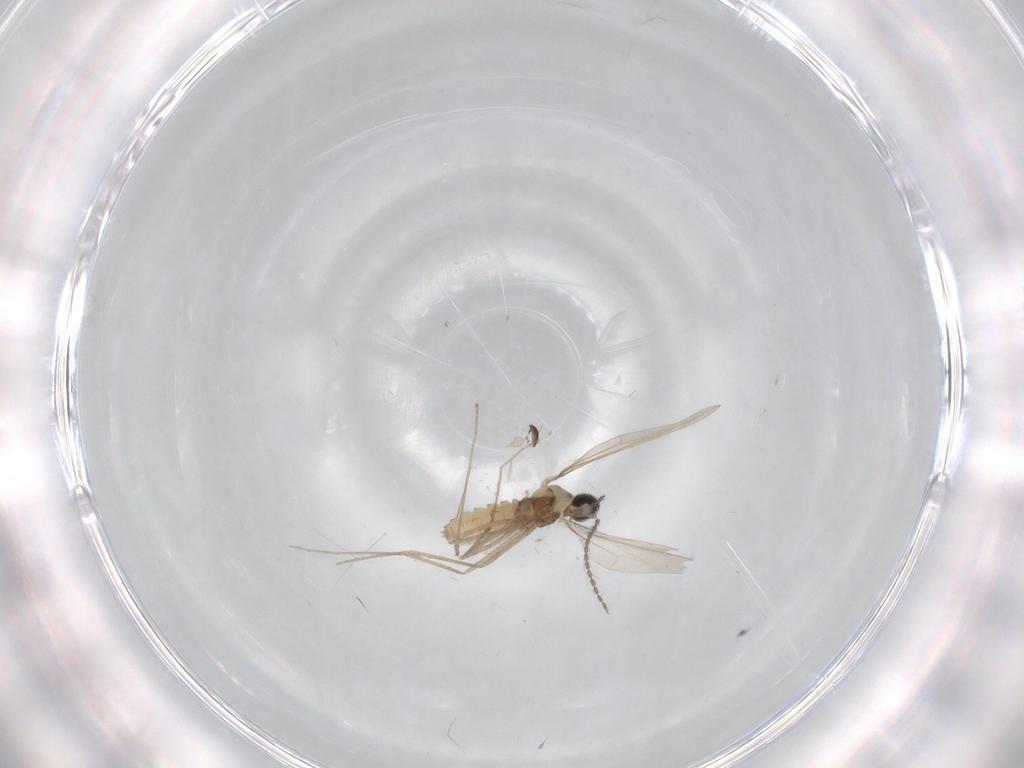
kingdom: Animalia
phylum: Arthropoda
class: Insecta
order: Diptera
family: Cecidomyiidae
